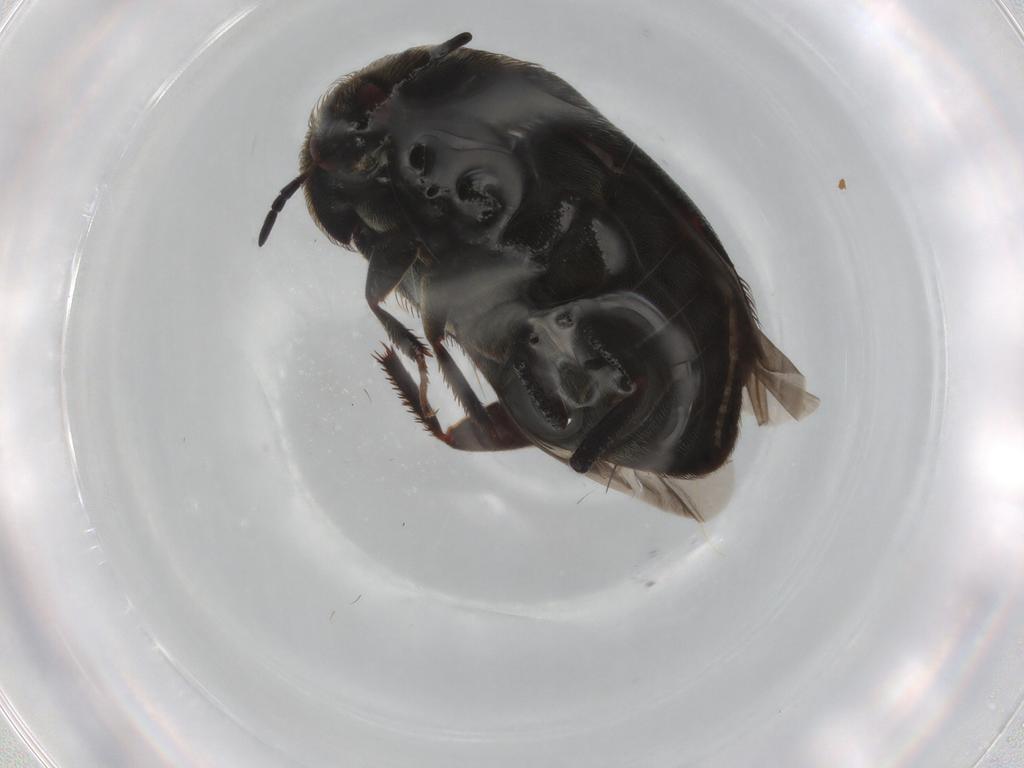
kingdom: Animalia
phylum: Arthropoda
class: Insecta
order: Coleoptera
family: Dermestidae
